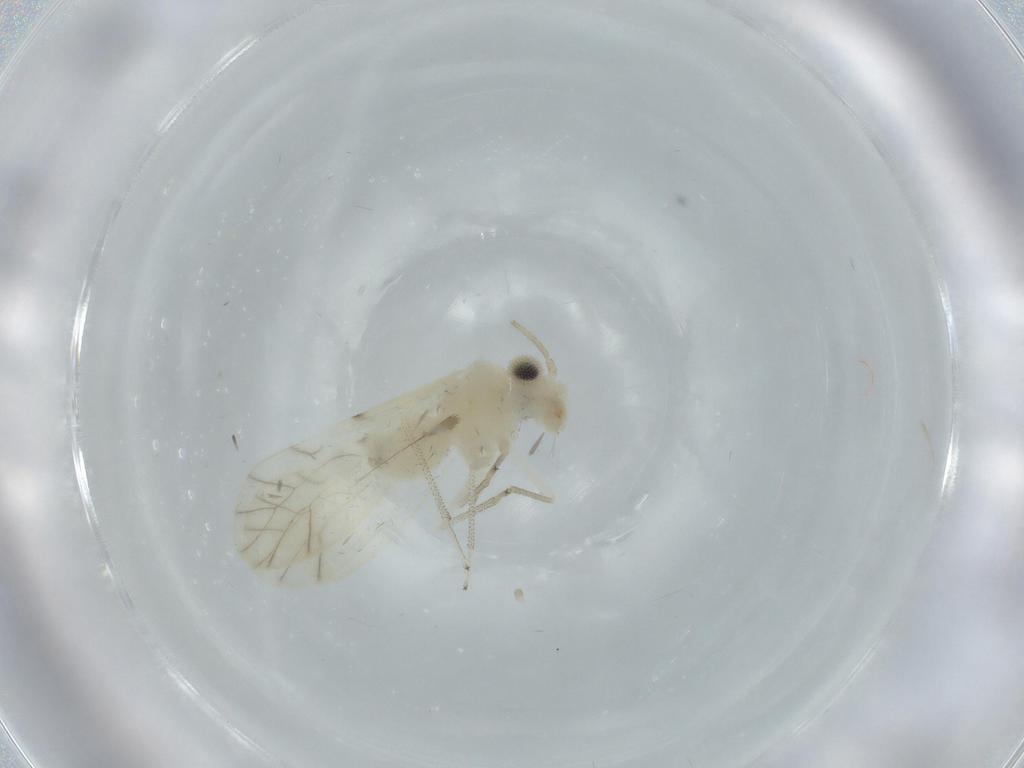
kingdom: Animalia
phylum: Arthropoda
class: Insecta
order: Psocodea
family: Caeciliusidae
